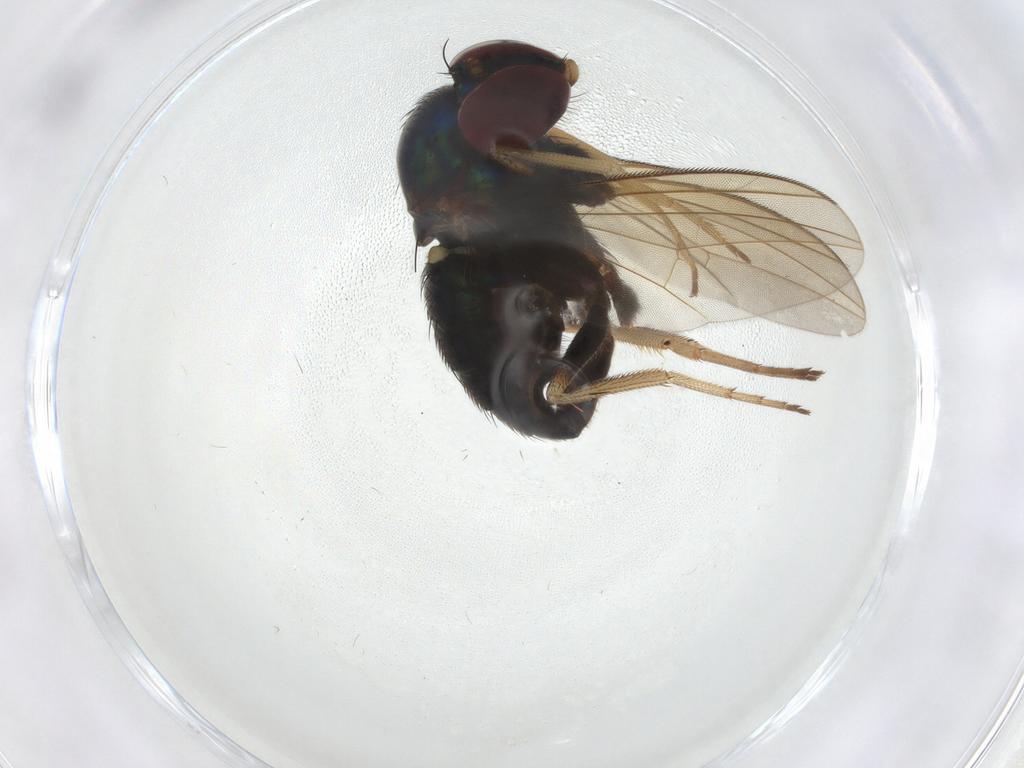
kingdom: Animalia
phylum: Arthropoda
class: Insecta
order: Diptera
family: Dolichopodidae
